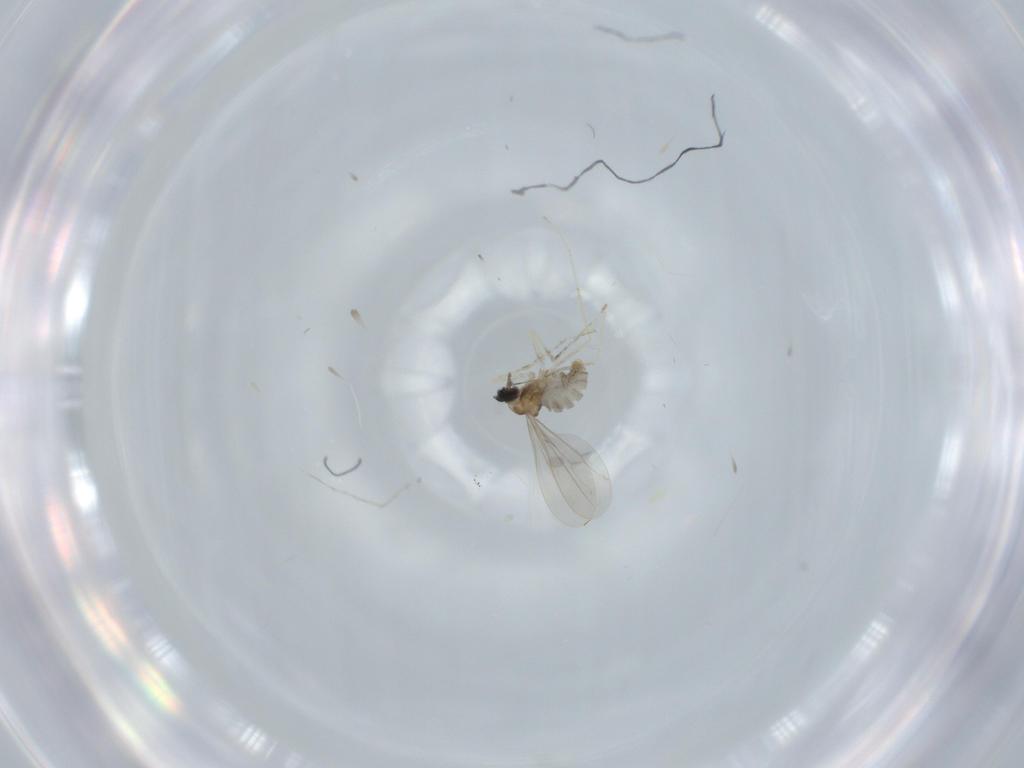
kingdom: Animalia
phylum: Arthropoda
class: Insecta
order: Diptera
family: Cecidomyiidae
